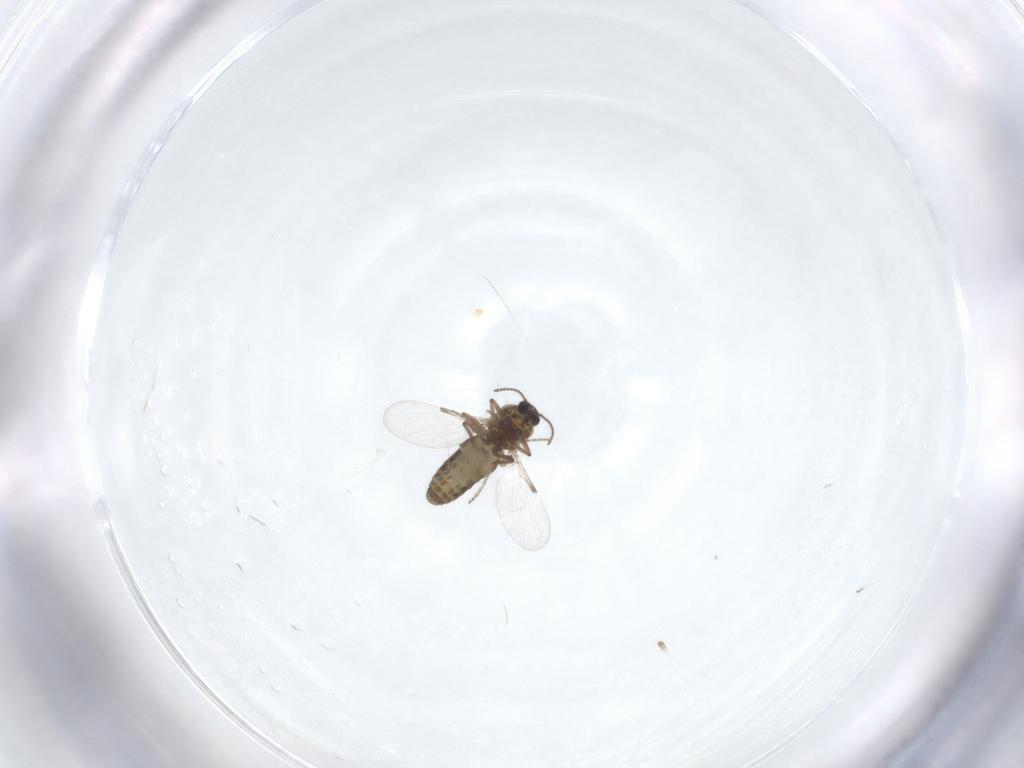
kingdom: Animalia
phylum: Arthropoda
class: Insecta
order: Diptera
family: Ceratopogonidae
